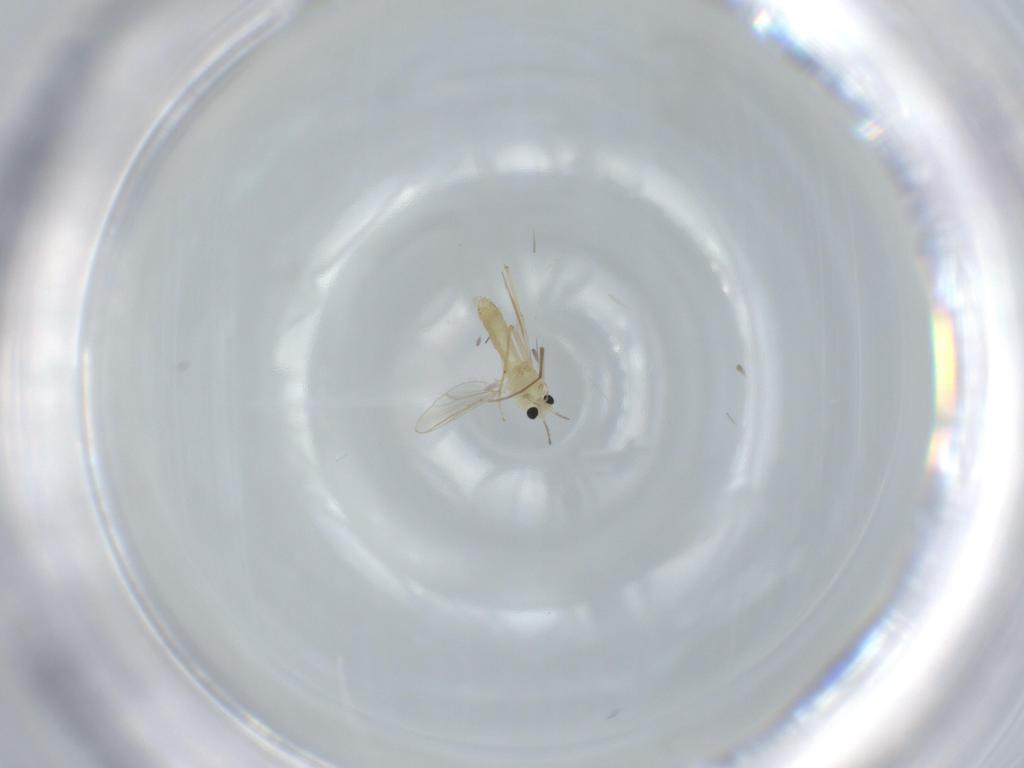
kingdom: Animalia
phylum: Arthropoda
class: Insecta
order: Diptera
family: Chironomidae
